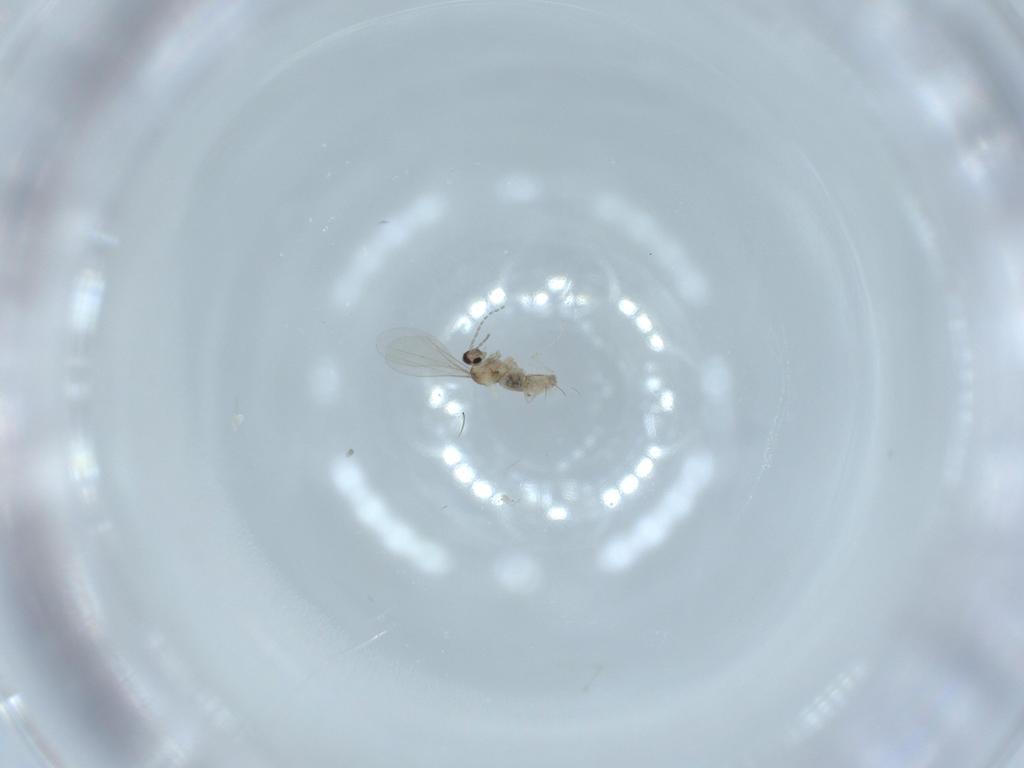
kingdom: Animalia
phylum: Arthropoda
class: Insecta
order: Diptera
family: Cecidomyiidae
